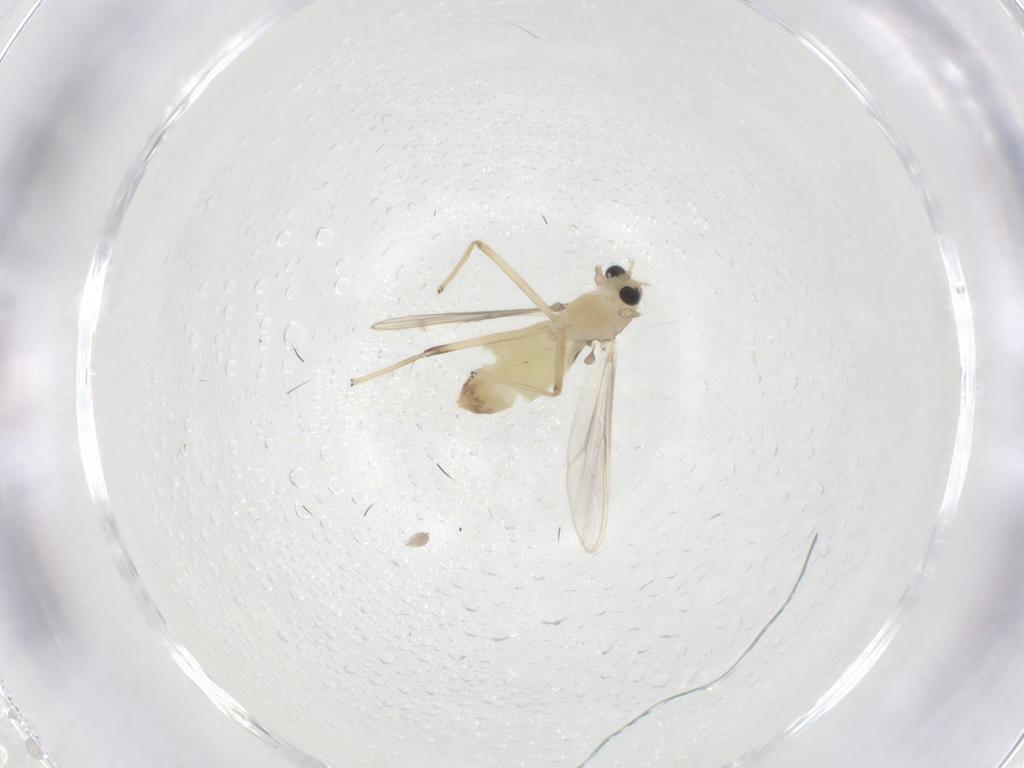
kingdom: Animalia
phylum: Arthropoda
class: Insecta
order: Diptera
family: Chironomidae
